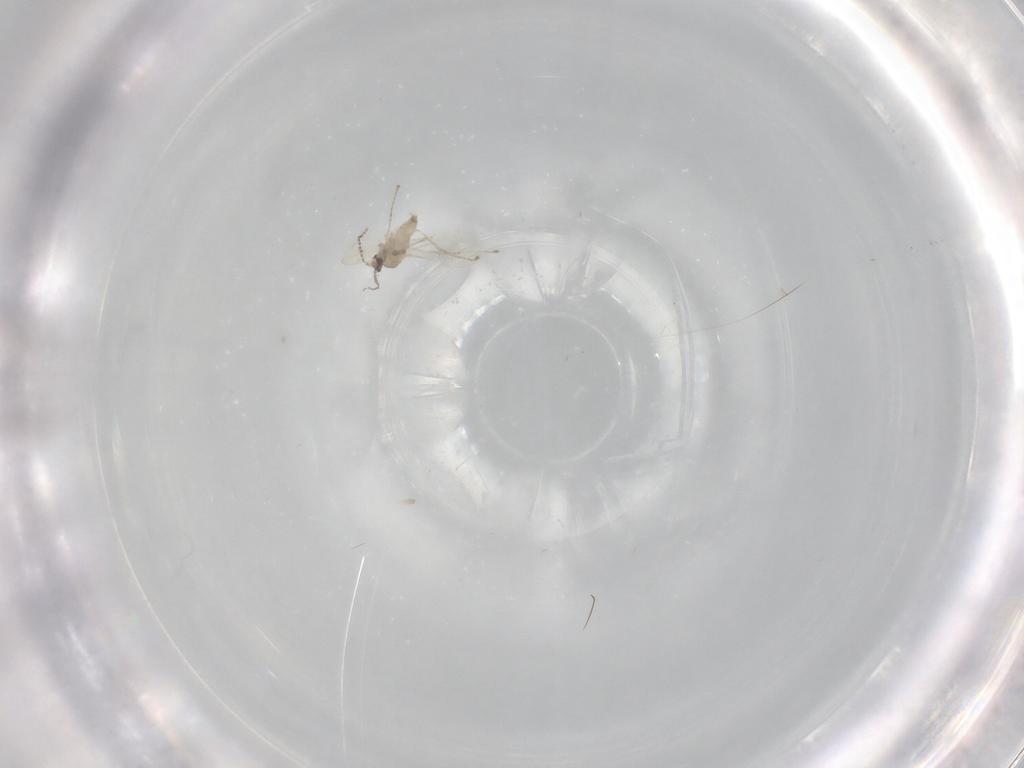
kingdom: Animalia
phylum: Arthropoda
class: Insecta
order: Diptera
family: Cecidomyiidae
